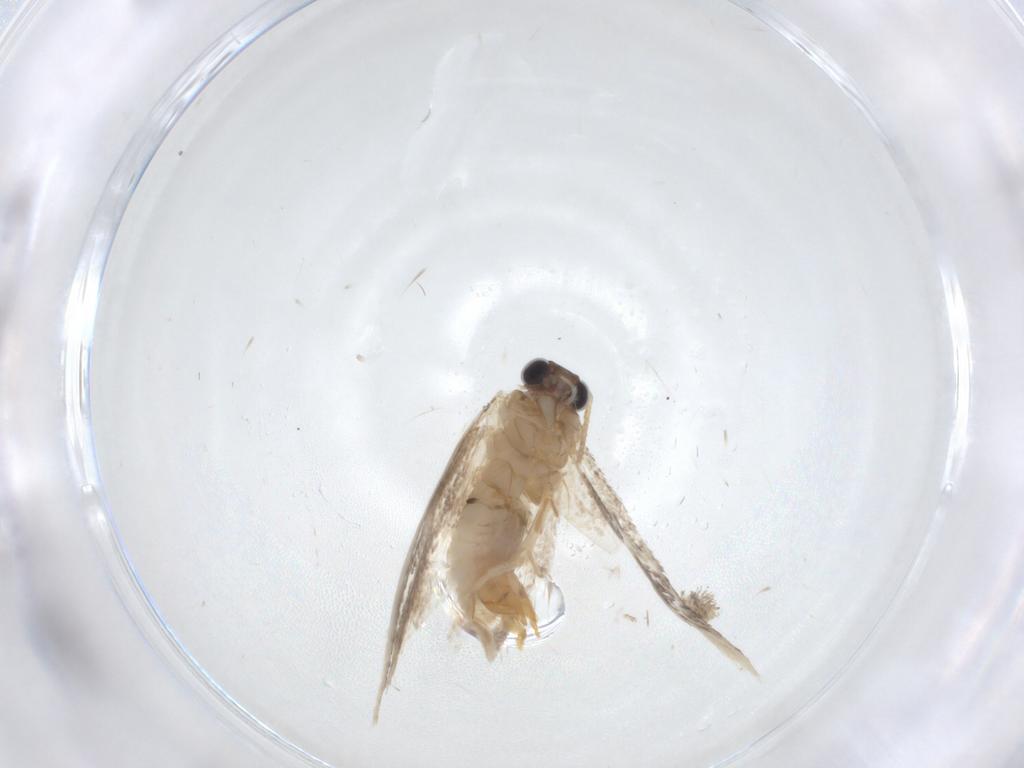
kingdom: Animalia
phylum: Arthropoda
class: Insecta
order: Lepidoptera
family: Tineidae
